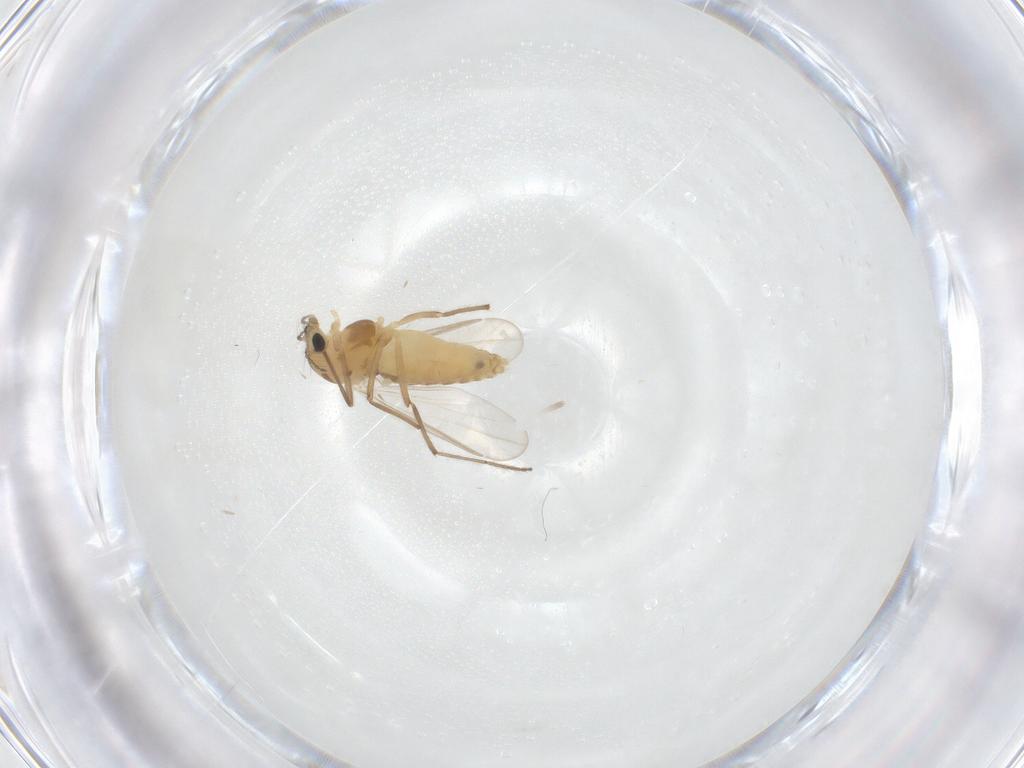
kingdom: Animalia
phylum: Arthropoda
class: Insecta
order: Diptera
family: Chironomidae
